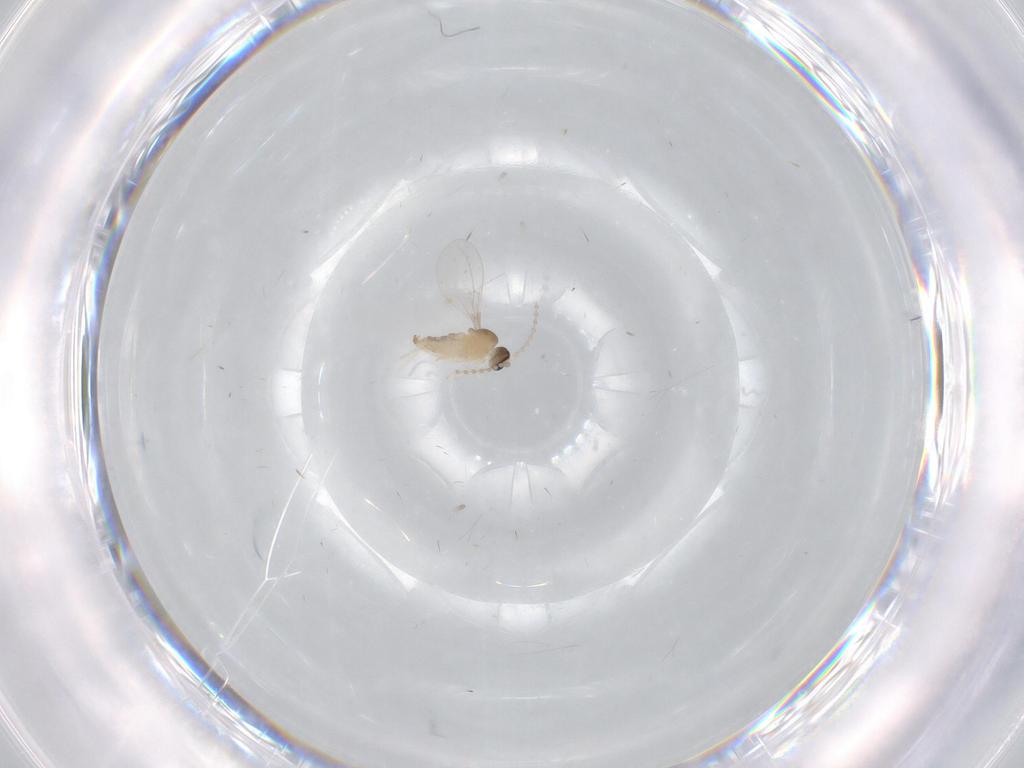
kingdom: Animalia
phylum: Arthropoda
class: Insecta
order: Diptera
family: Cecidomyiidae
